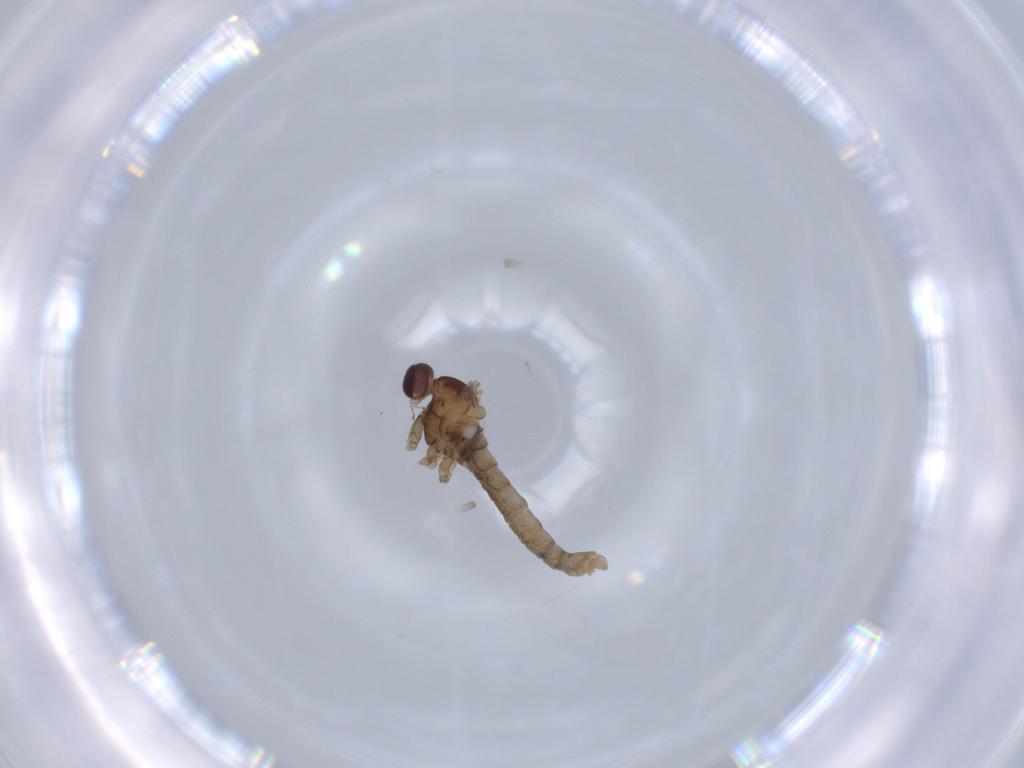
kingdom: Animalia
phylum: Arthropoda
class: Insecta
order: Diptera
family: Cecidomyiidae
